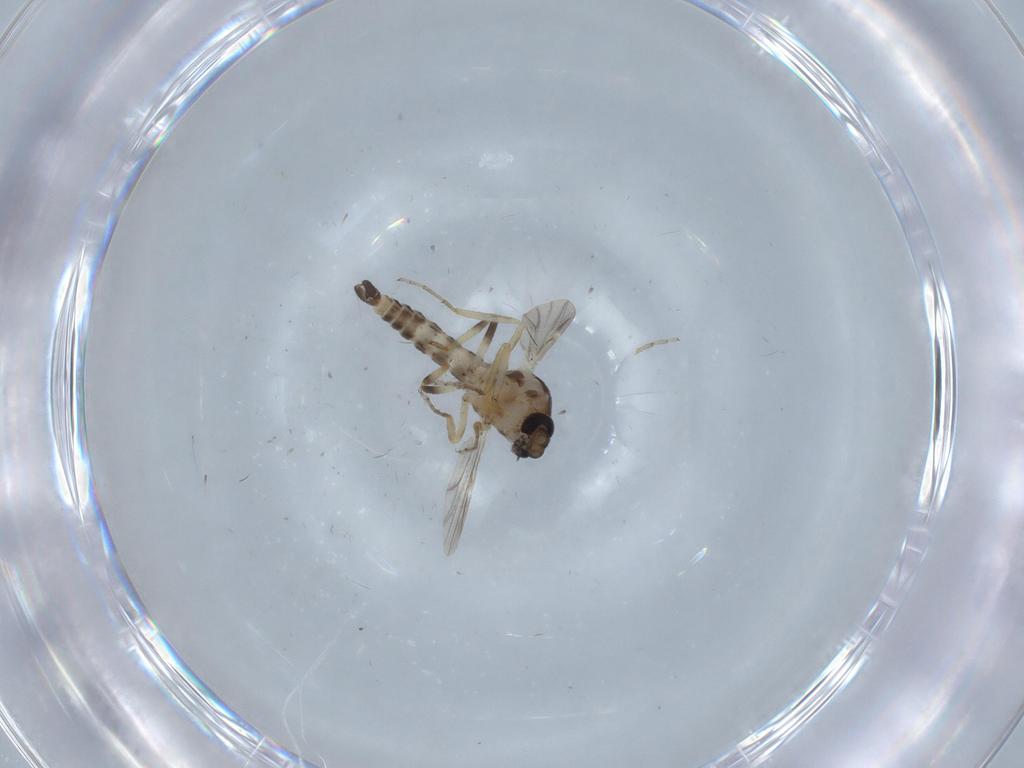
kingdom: Animalia
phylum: Arthropoda
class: Insecta
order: Diptera
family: Ceratopogonidae
